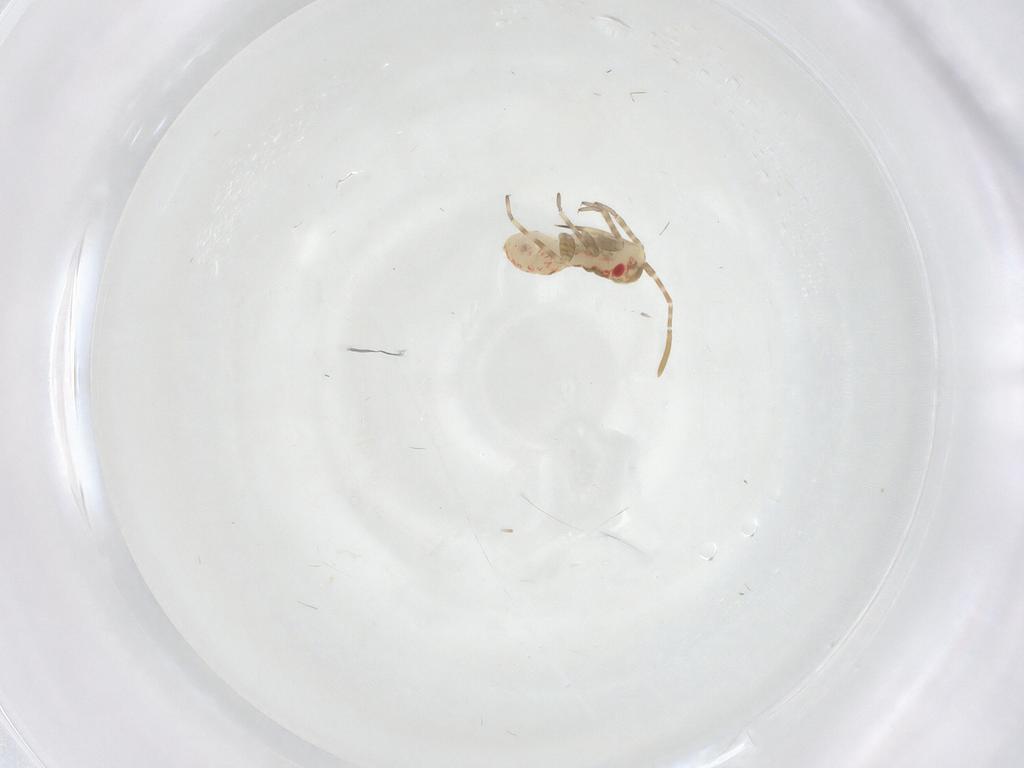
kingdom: Animalia
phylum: Arthropoda
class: Insecta
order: Hemiptera
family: Miridae
